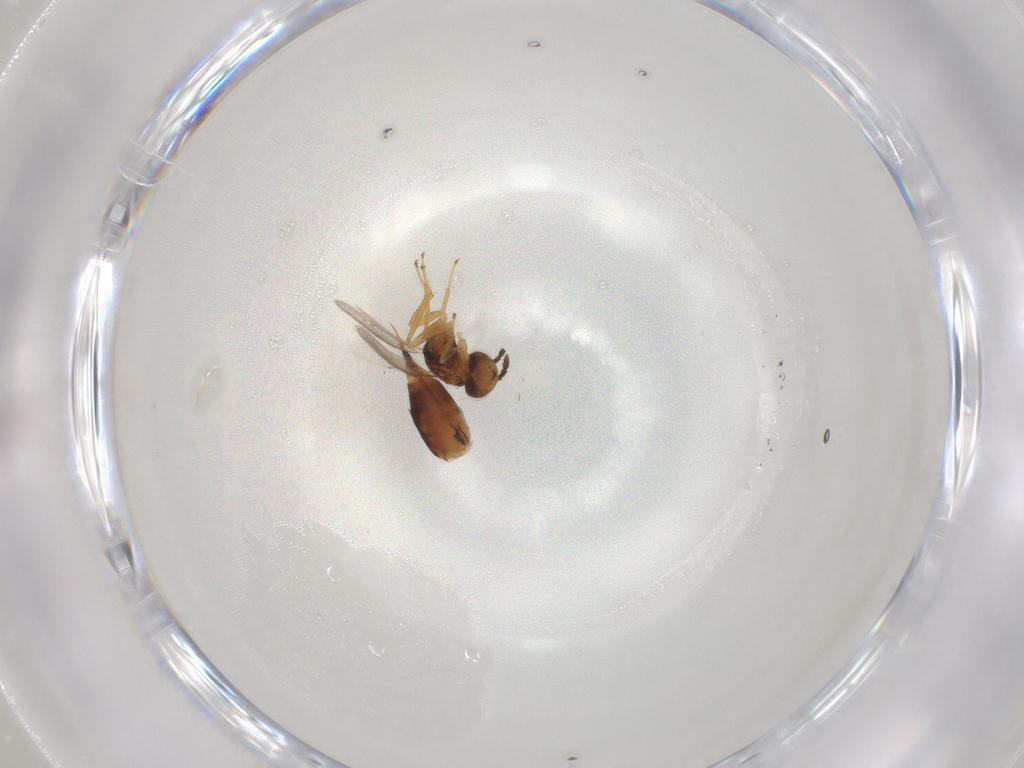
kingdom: Animalia
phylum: Arthropoda
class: Insecta
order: Hymenoptera
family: Eulophidae
